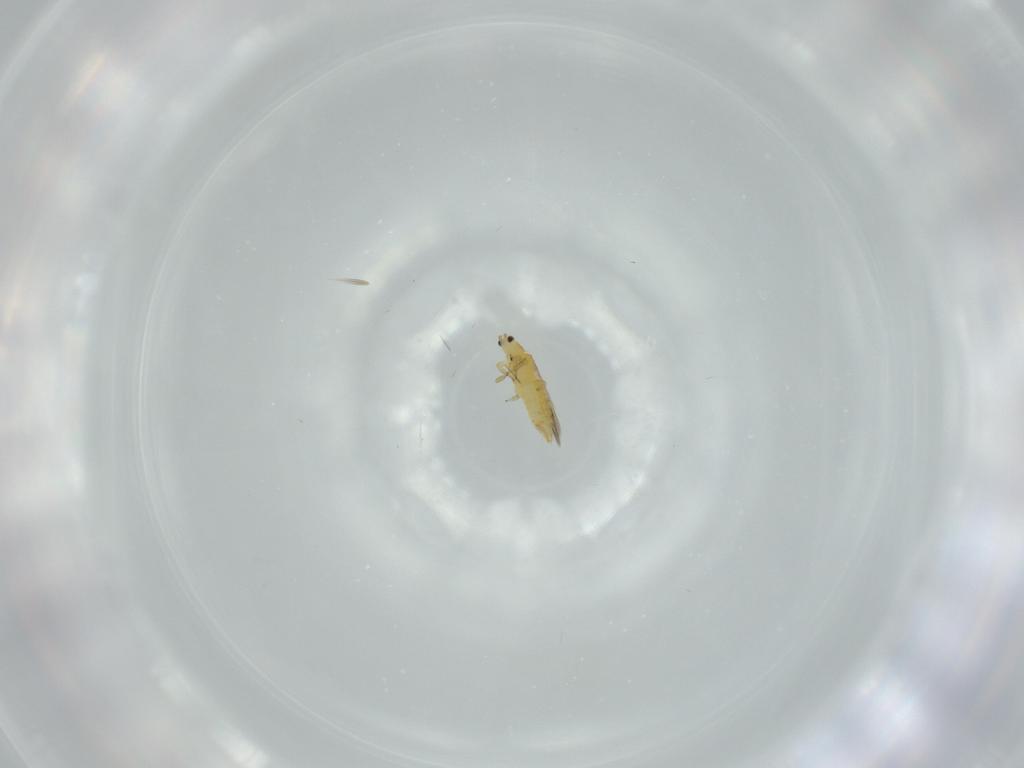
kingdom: Animalia
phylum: Arthropoda
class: Insecta
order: Thysanoptera
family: Thripidae
